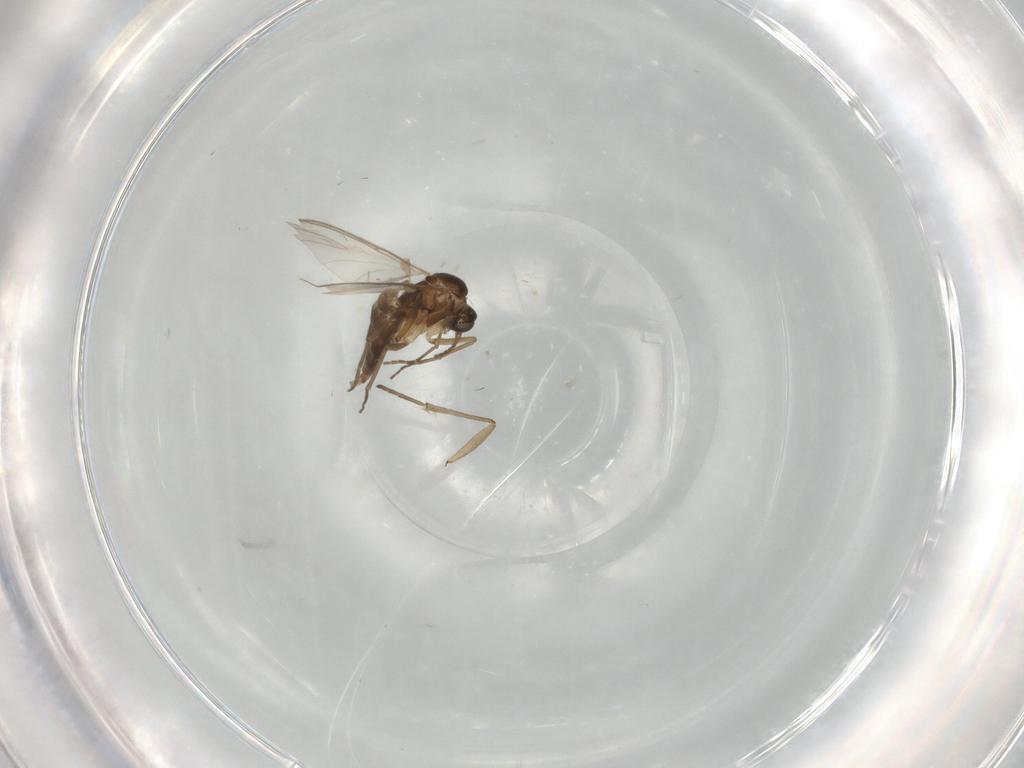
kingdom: Animalia
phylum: Arthropoda
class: Insecta
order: Diptera
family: Sciaridae
